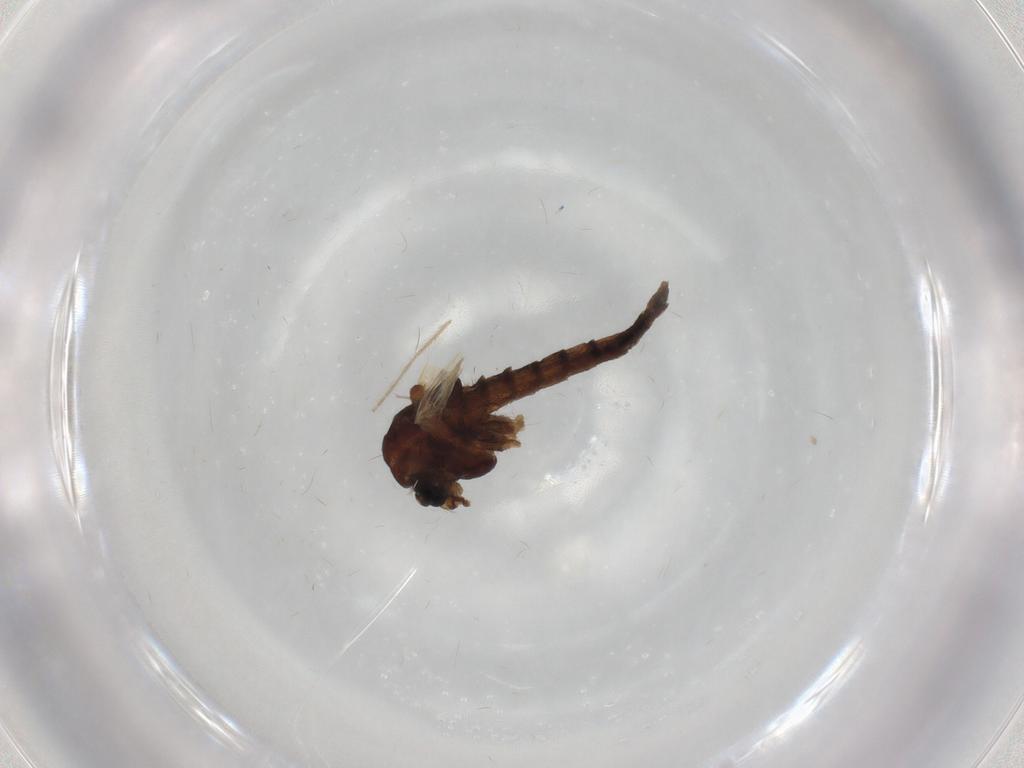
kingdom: Animalia
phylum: Arthropoda
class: Insecta
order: Diptera
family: Chironomidae
